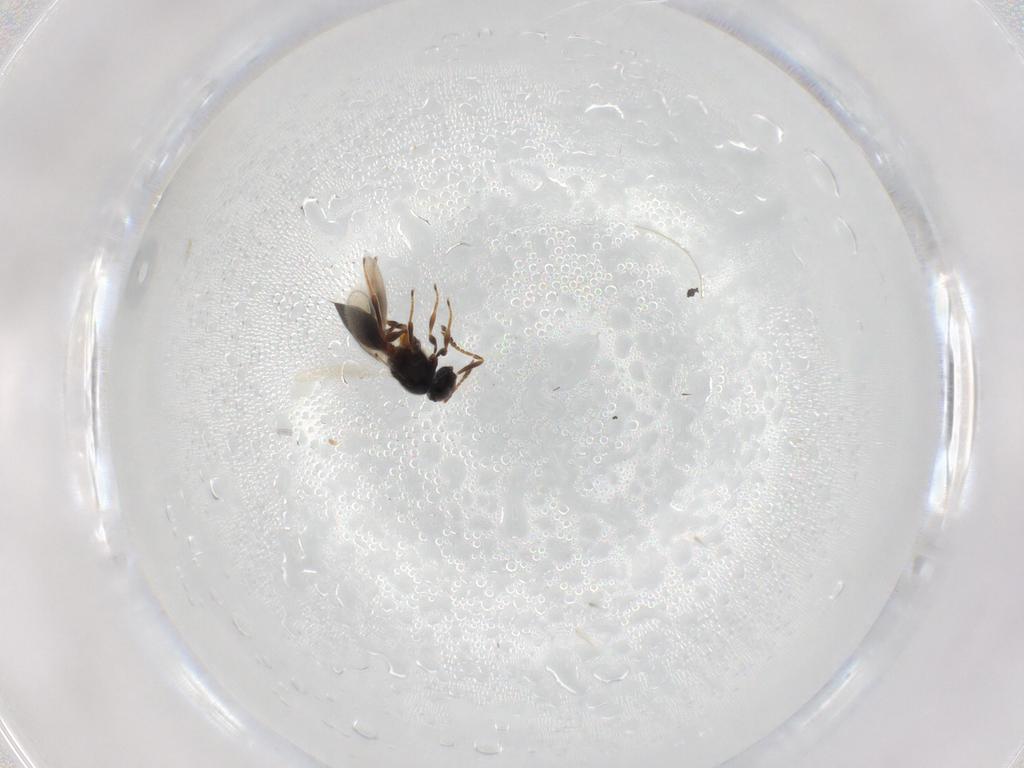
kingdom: Animalia
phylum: Arthropoda
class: Insecta
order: Hymenoptera
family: Platygastridae
